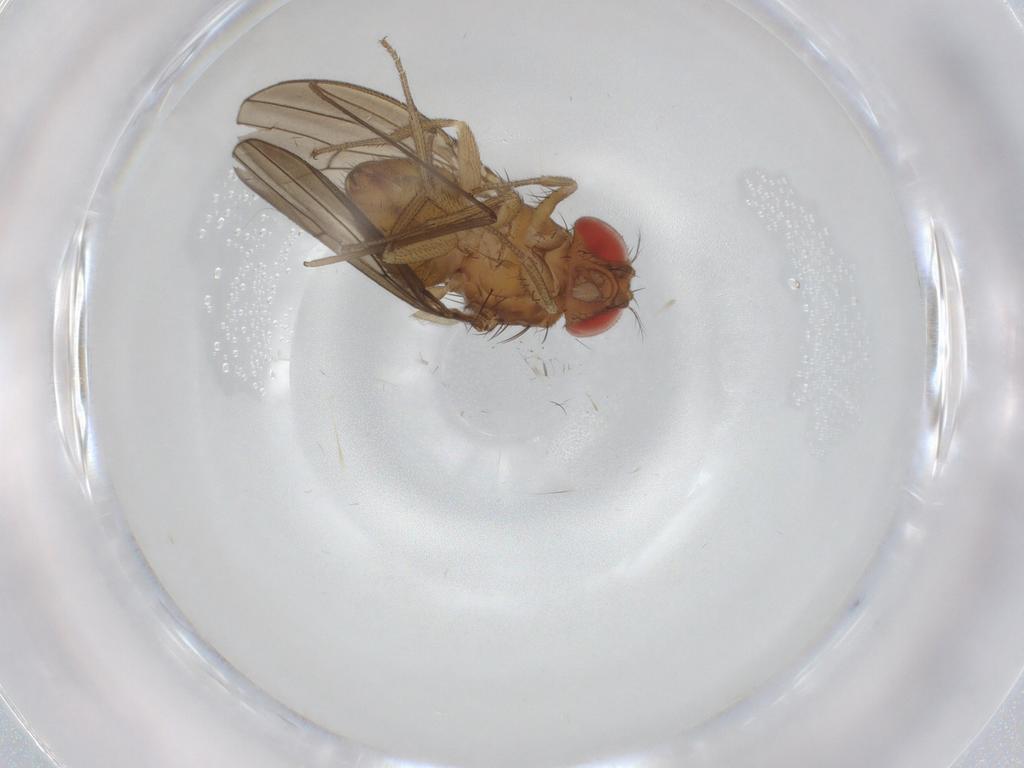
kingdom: Animalia
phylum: Arthropoda
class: Insecta
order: Diptera
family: Drosophilidae
